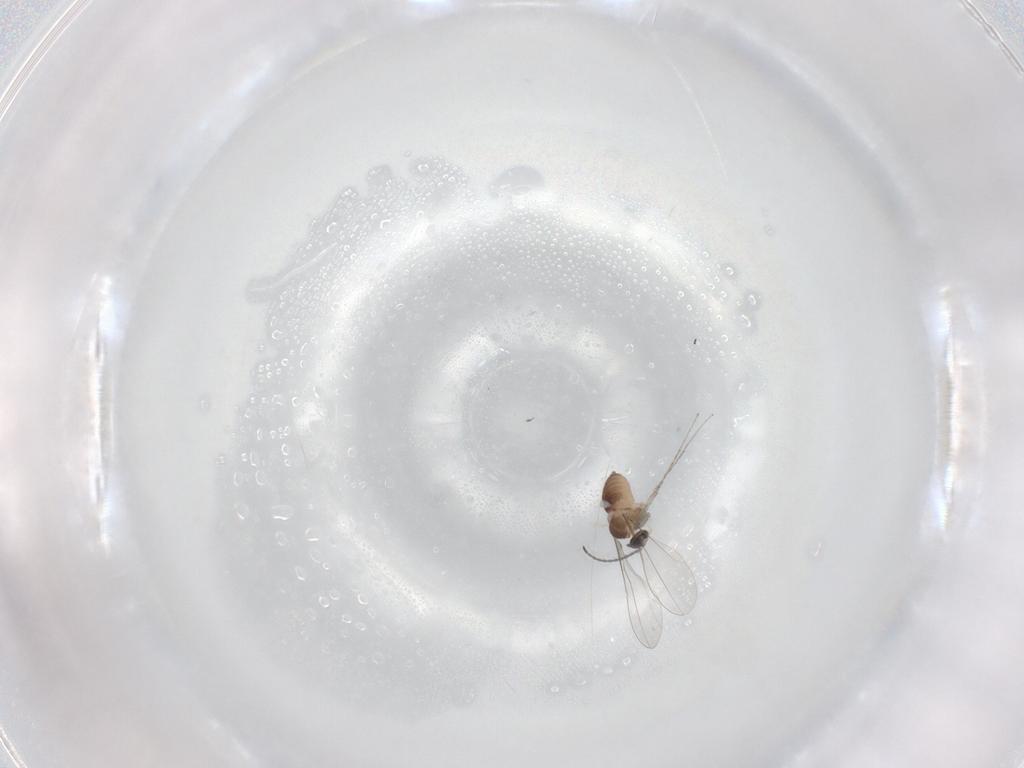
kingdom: Animalia
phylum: Arthropoda
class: Insecta
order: Diptera
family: Cecidomyiidae
